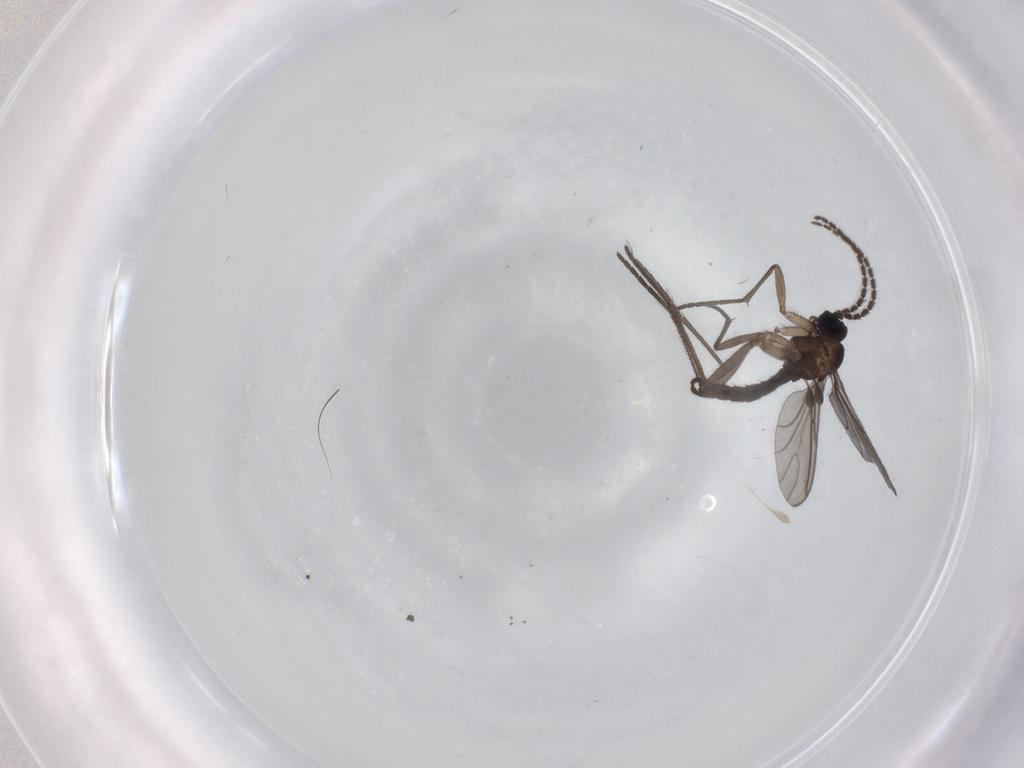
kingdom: Animalia
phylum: Arthropoda
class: Insecta
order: Diptera
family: Sciaridae
